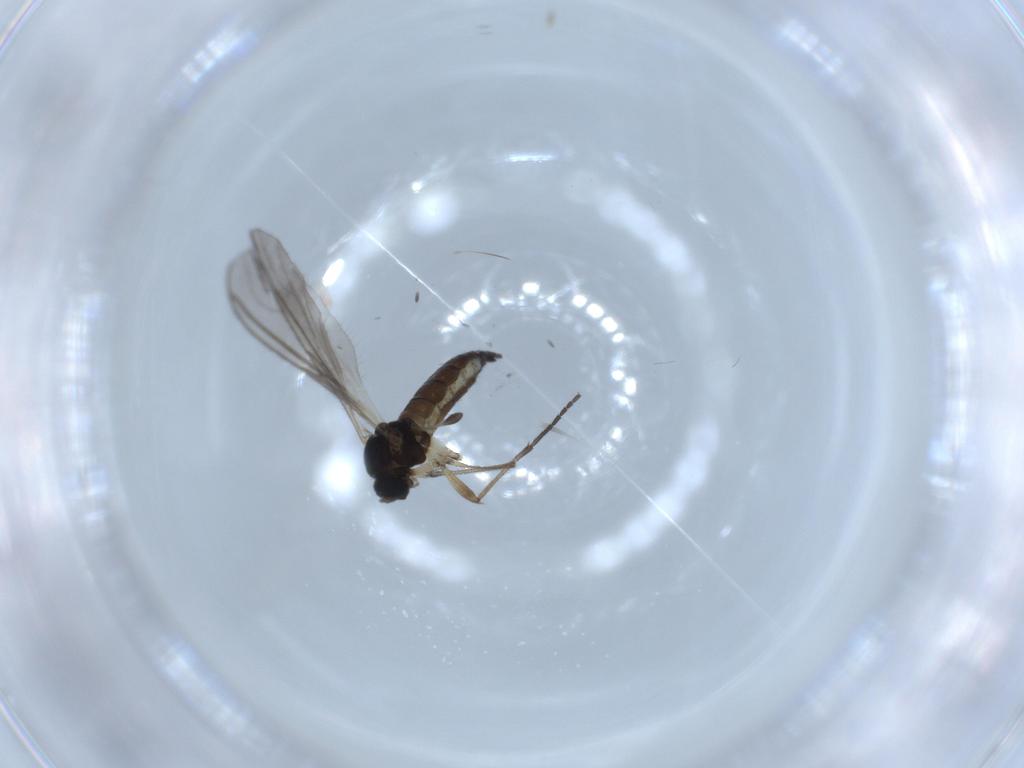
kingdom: Animalia
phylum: Arthropoda
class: Insecta
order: Diptera
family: Sciaridae
